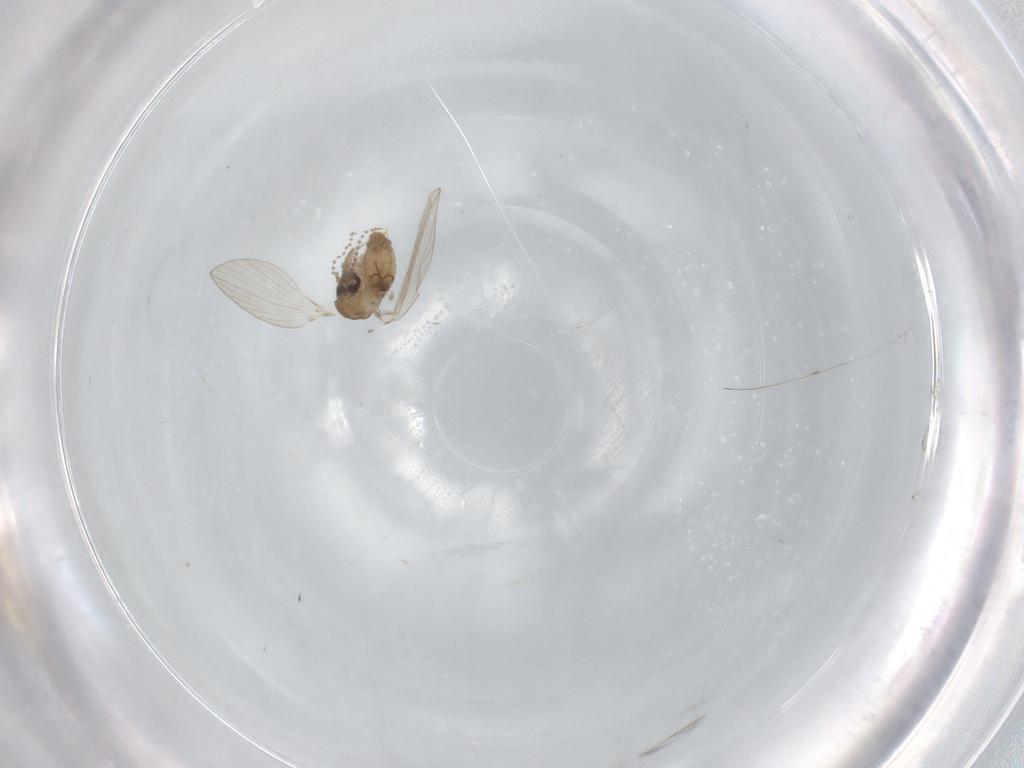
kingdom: Animalia
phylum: Arthropoda
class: Insecta
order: Diptera
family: Psychodidae
